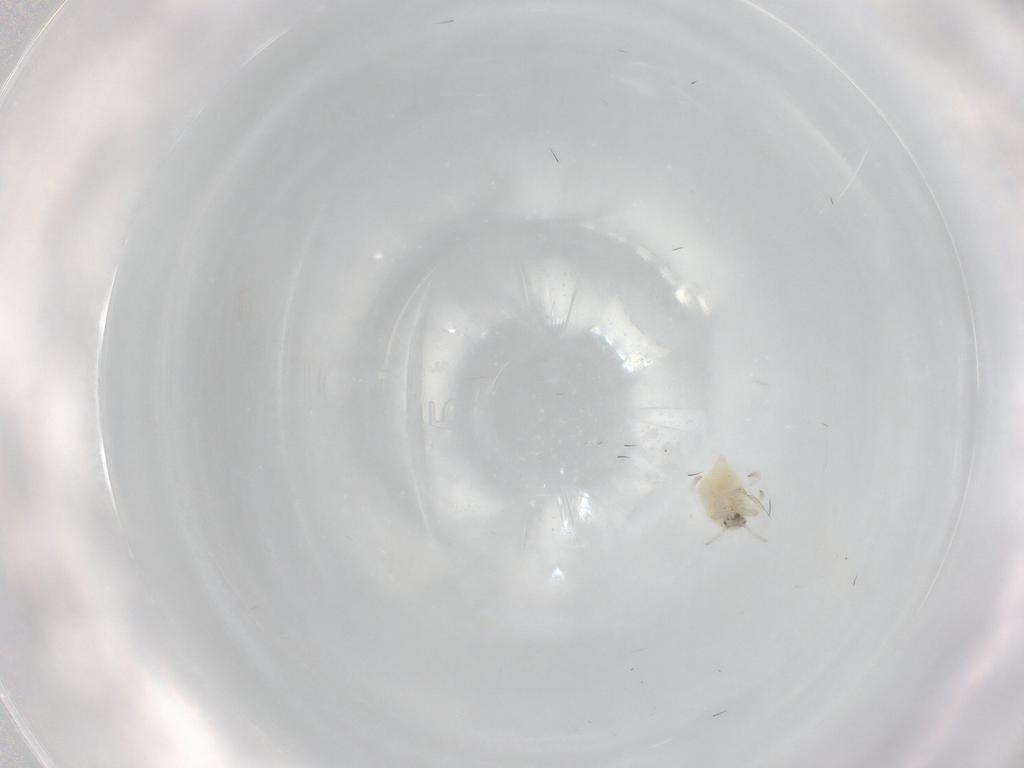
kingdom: Animalia
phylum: Arthropoda
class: Insecta
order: Neuroptera
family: Coniopterygidae
